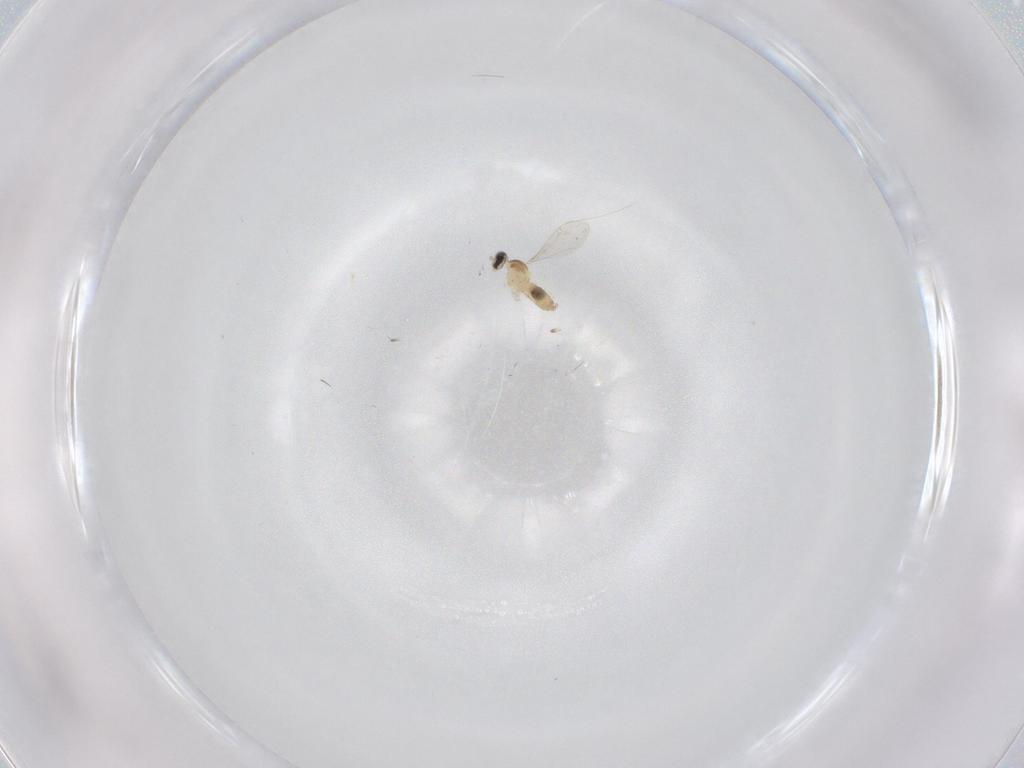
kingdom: Animalia
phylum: Arthropoda
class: Insecta
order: Diptera
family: Cecidomyiidae
